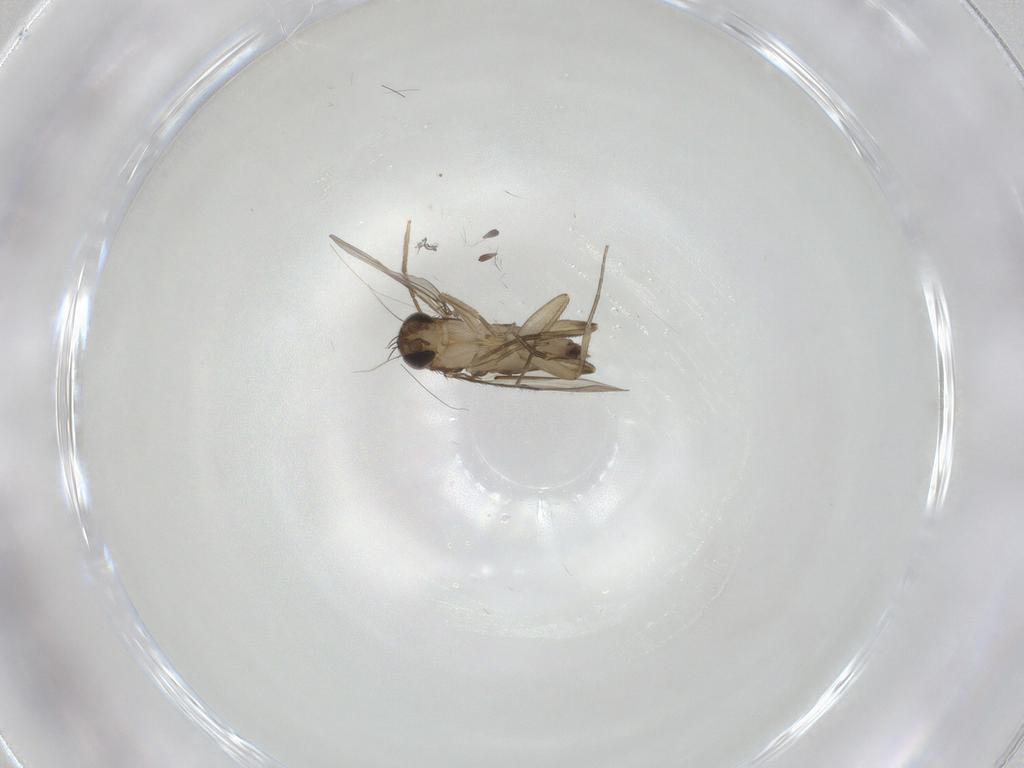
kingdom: Animalia
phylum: Arthropoda
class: Insecta
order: Diptera
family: Phoridae
